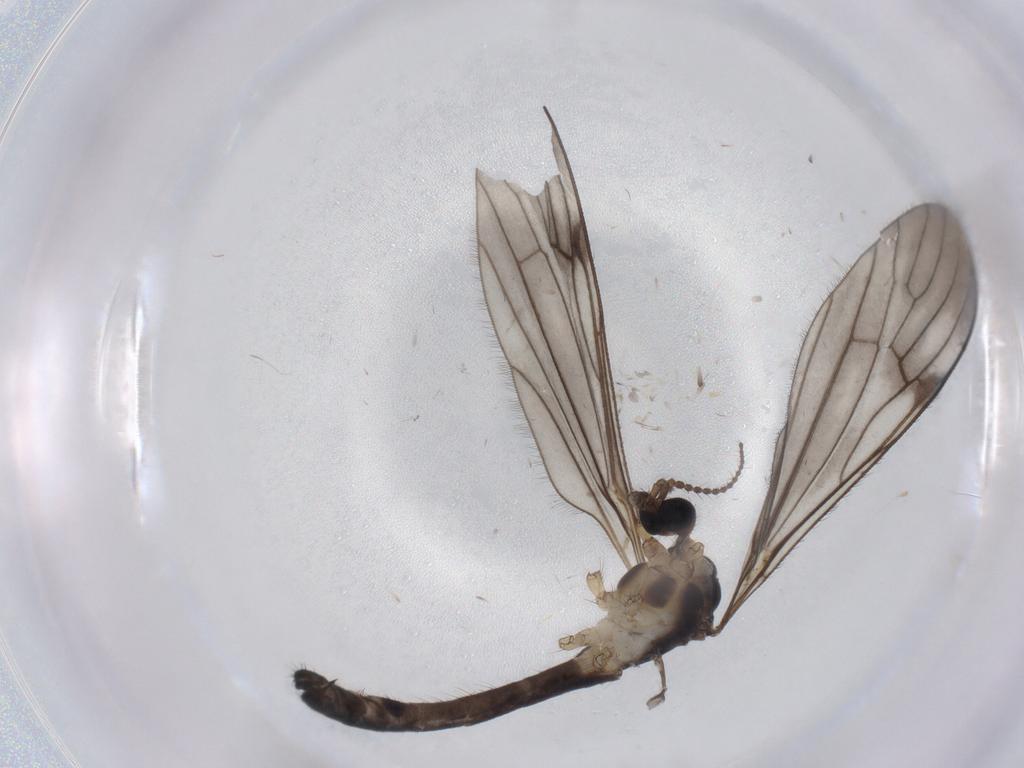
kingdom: Animalia
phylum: Arthropoda
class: Insecta
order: Diptera
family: Limoniidae
